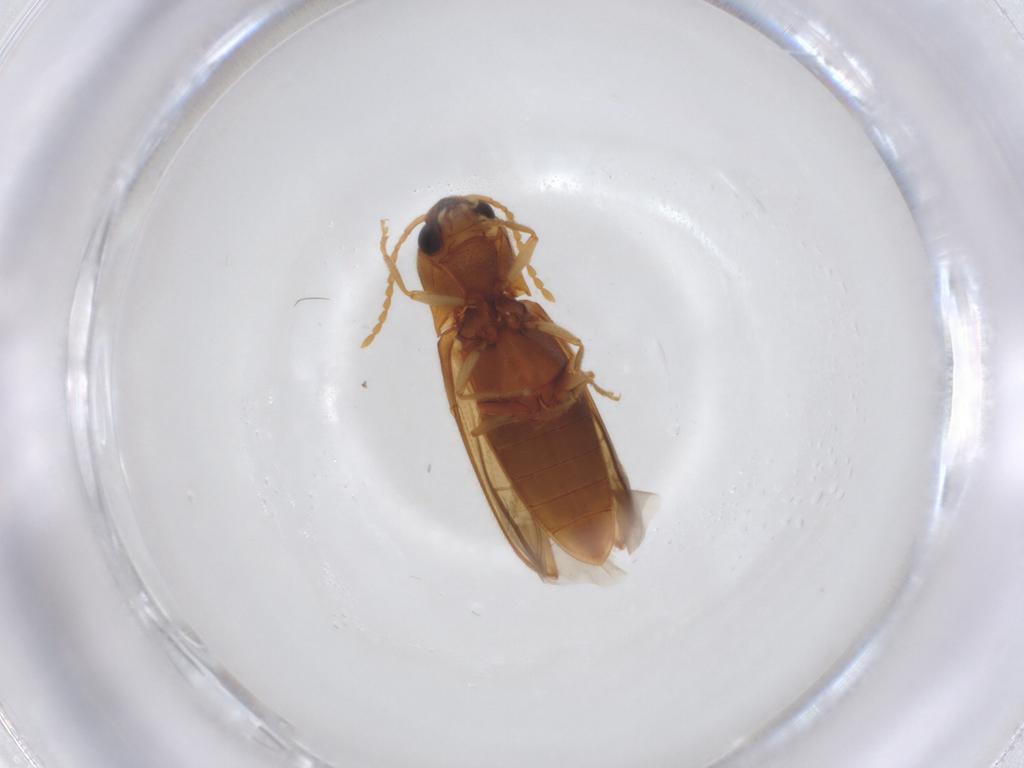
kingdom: Animalia
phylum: Arthropoda
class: Insecta
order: Coleoptera
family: Elateridae
